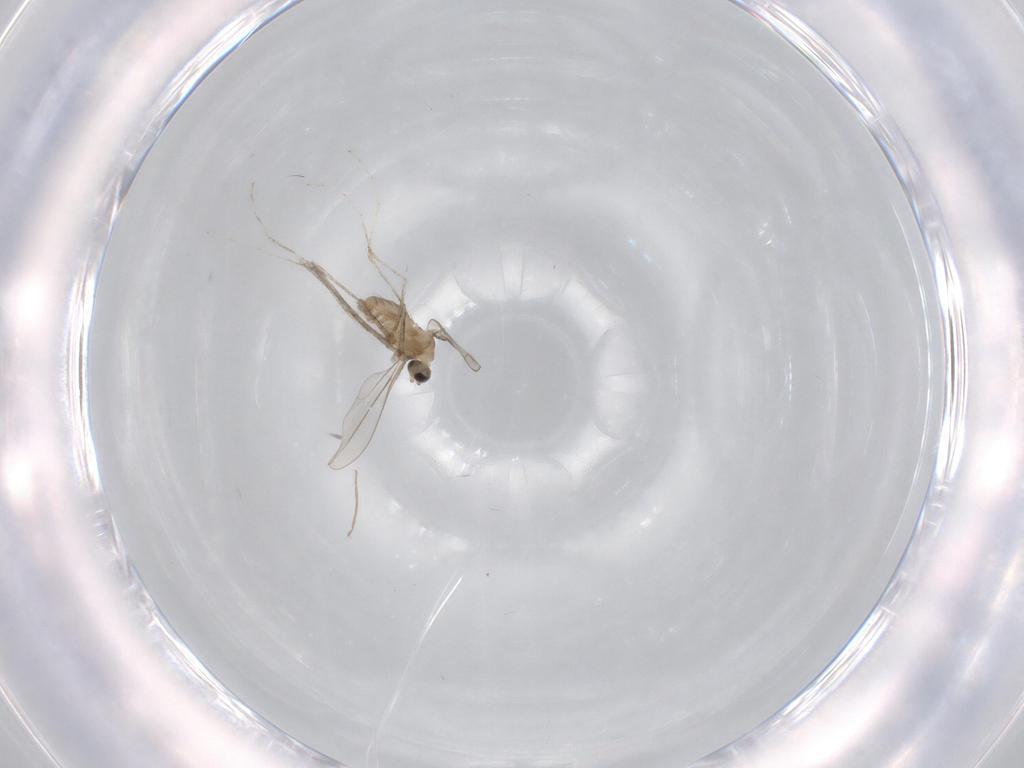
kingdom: Animalia
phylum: Arthropoda
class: Insecta
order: Diptera
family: Cecidomyiidae
